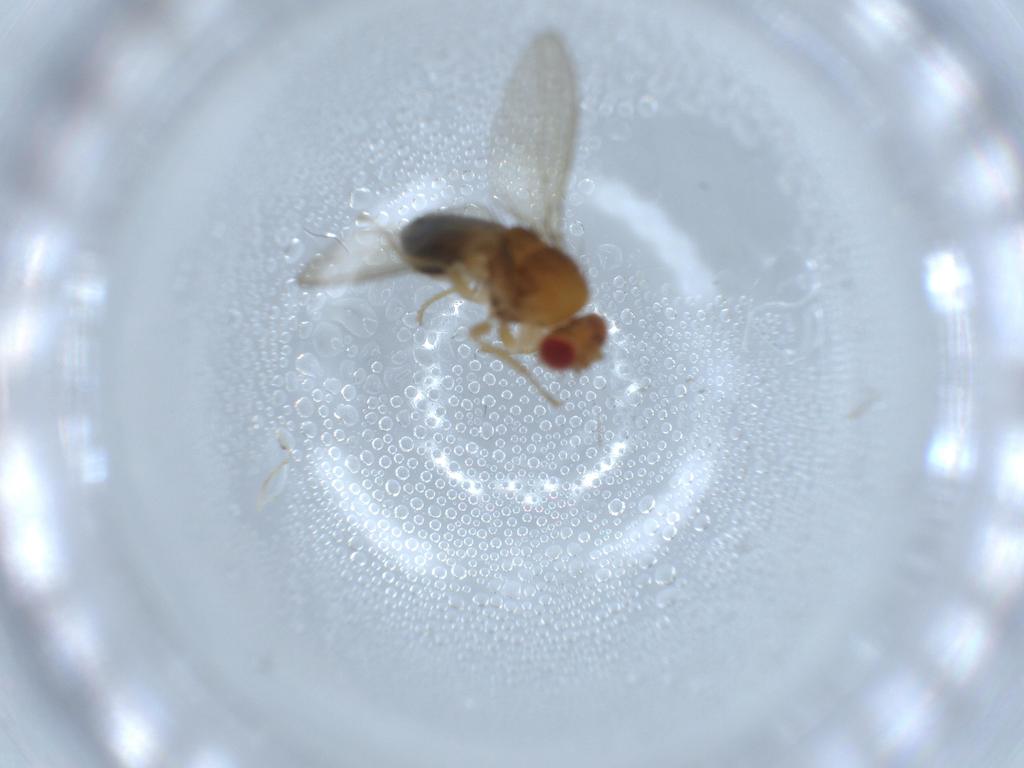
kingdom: Animalia
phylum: Arthropoda
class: Insecta
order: Diptera
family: Drosophilidae
